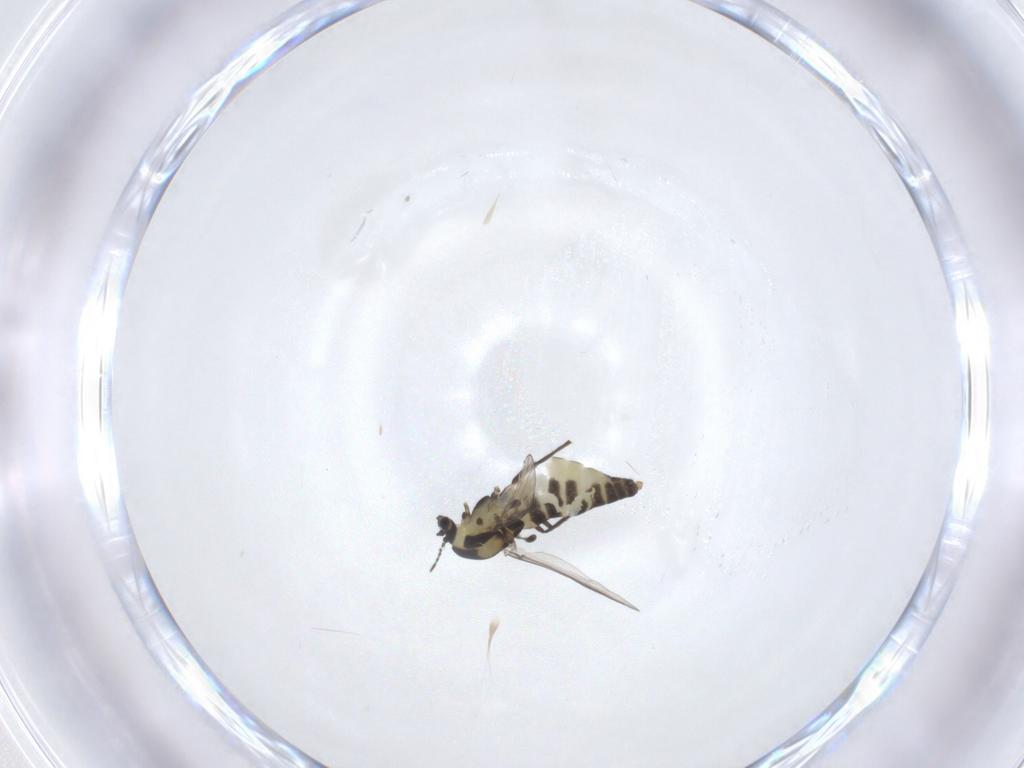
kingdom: Animalia
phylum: Arthropoda
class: Insecta
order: Diptera
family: Chironomidae
